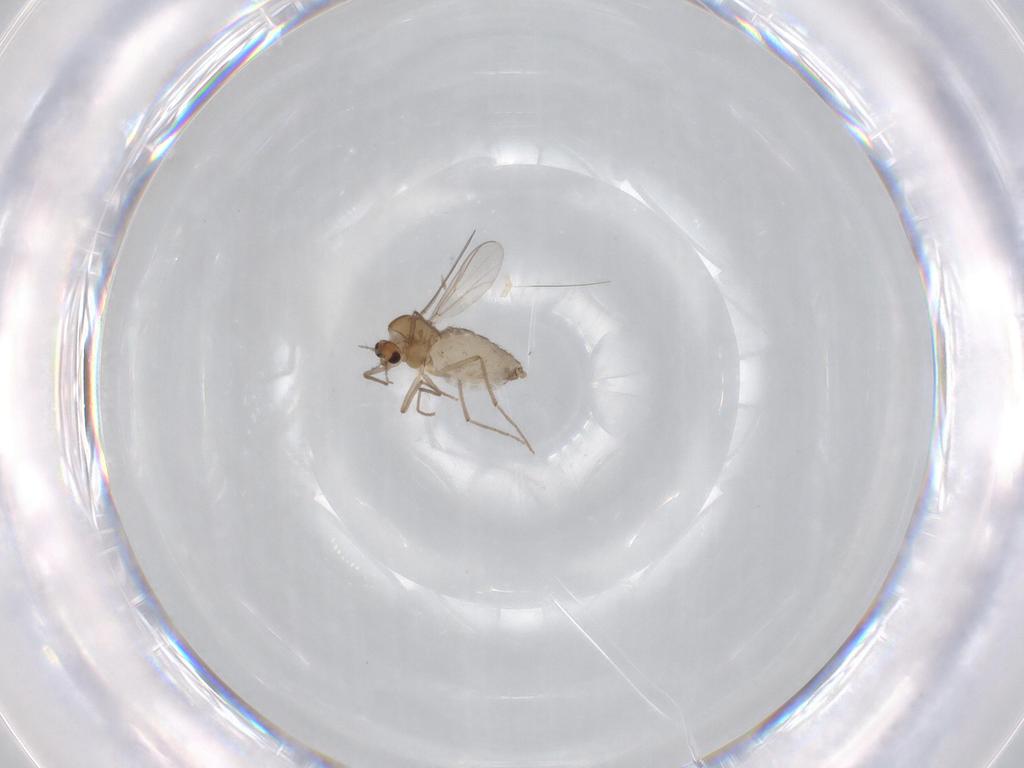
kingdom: Animalia
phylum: Arthropoda
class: Insecta
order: Diptera
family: Chironomidae
